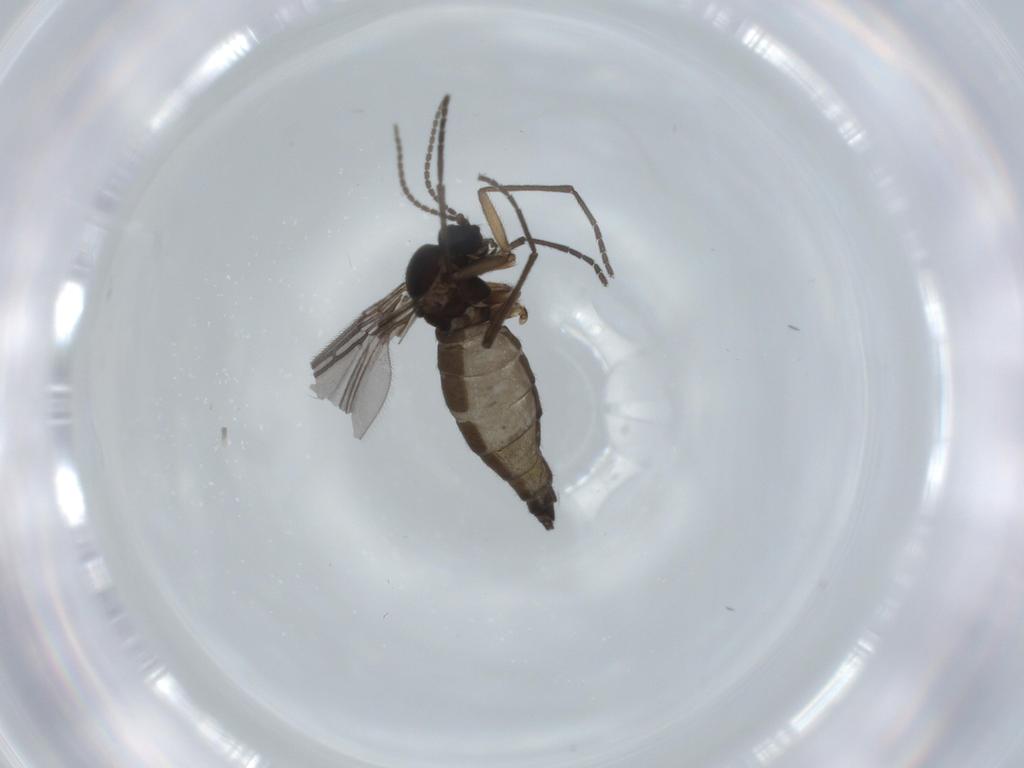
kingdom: Animalia
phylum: Arthropoda
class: Insecta
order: Diptera
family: Sciaridae
